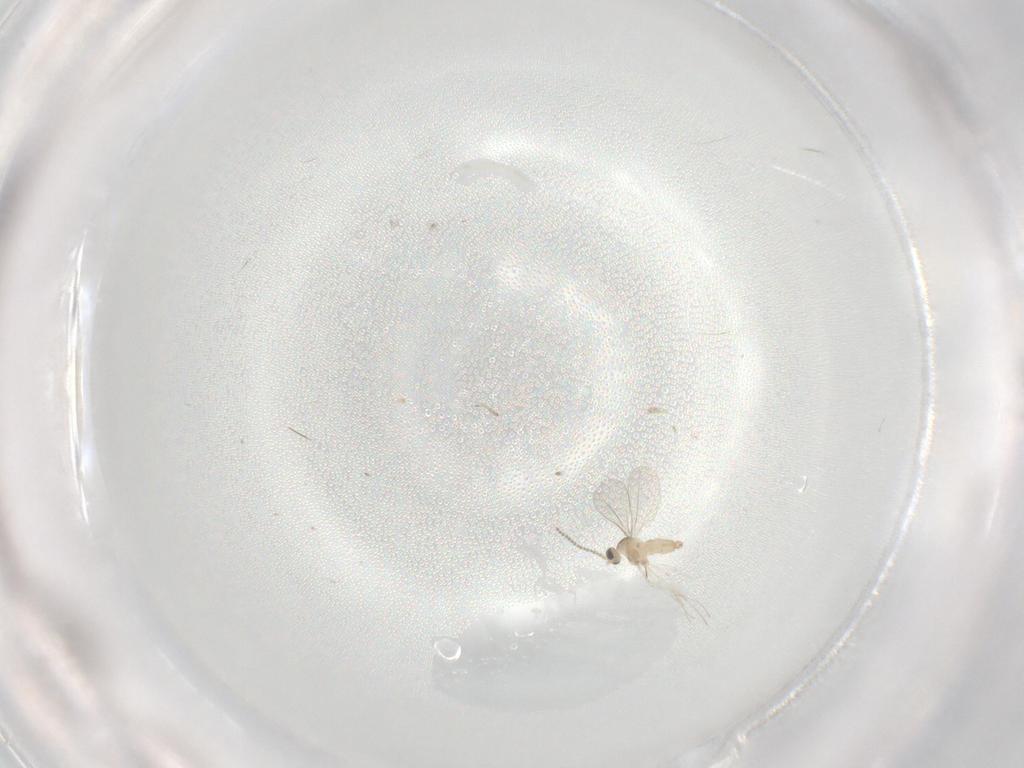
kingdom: Animalia
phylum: Arthropoda
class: Insecta
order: Diptera
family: Cecidomyiidae
